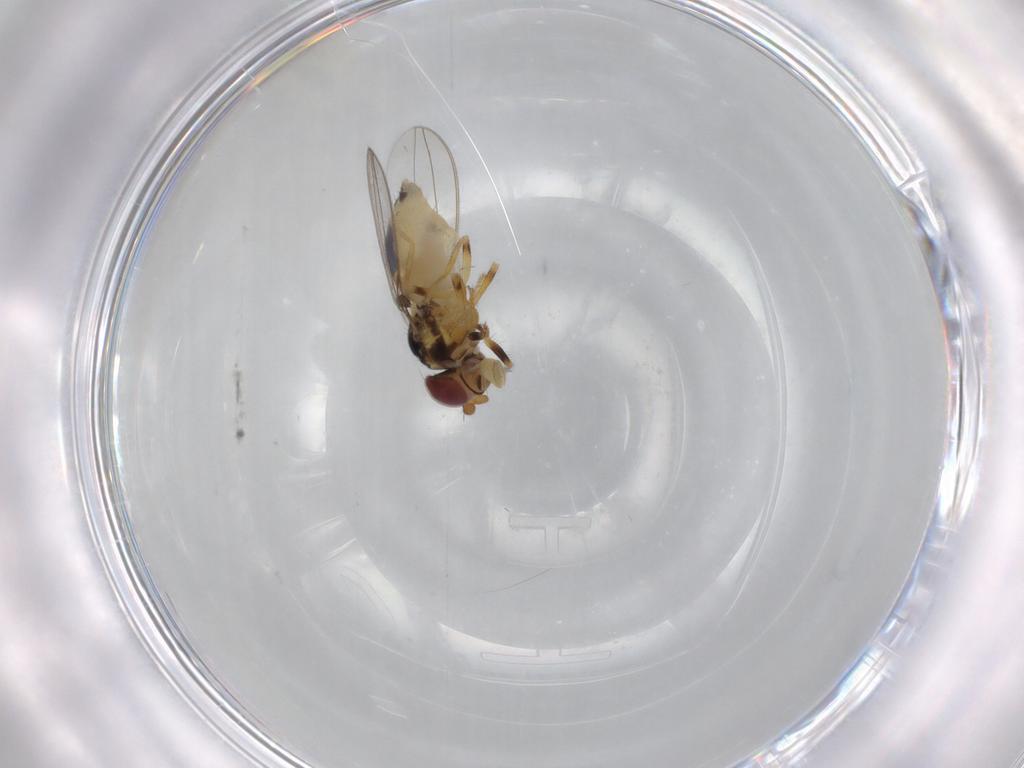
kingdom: Animalia
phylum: Arthropoda
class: Insecta
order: Diptera
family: Asteiidae
